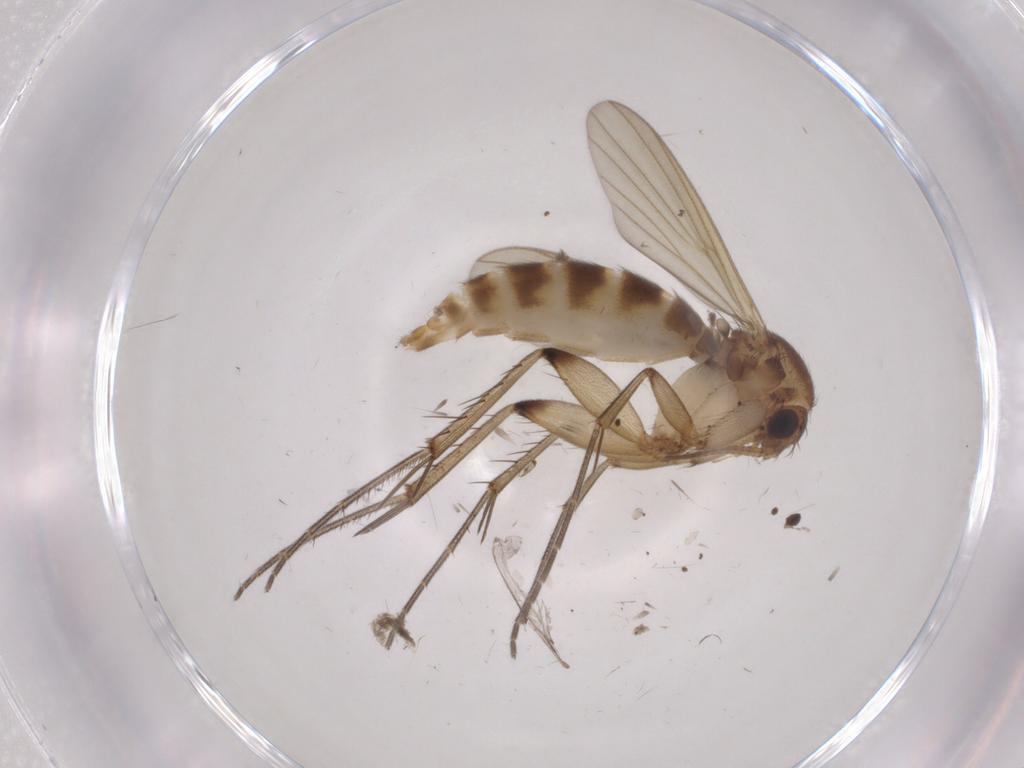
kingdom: Animalia
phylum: Arthropoda
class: Insecta
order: Diptera
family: Mycetophilidae
